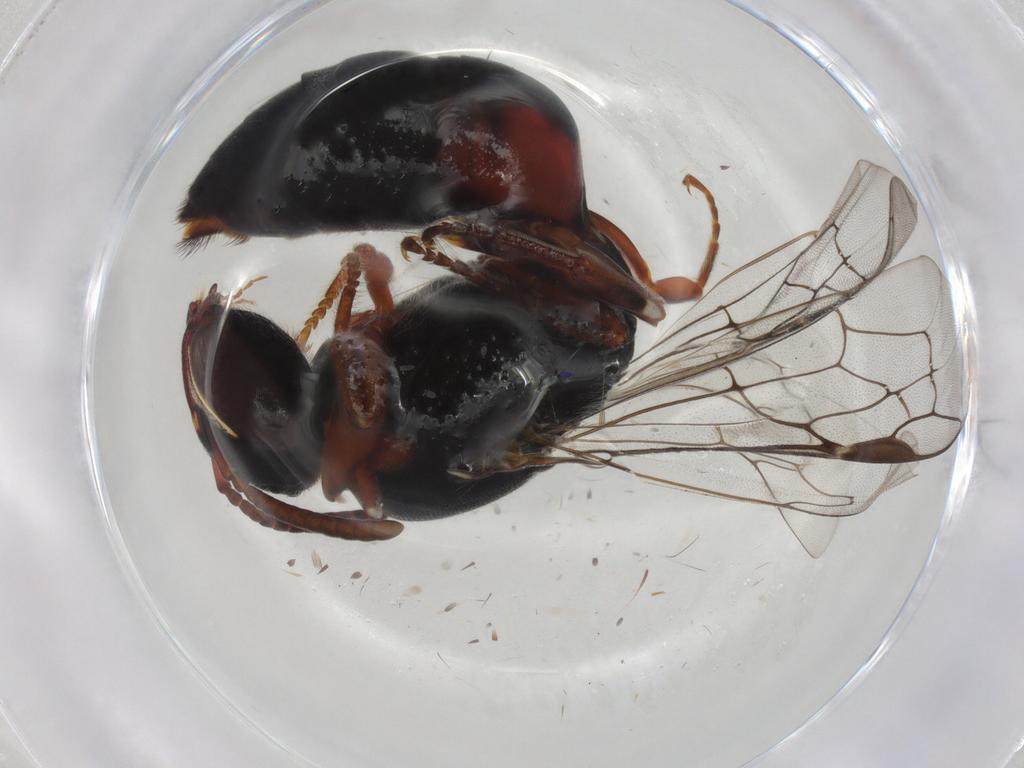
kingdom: Animalia
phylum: Arthropoda
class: Insecta
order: Hymenoptera
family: Colletidae
